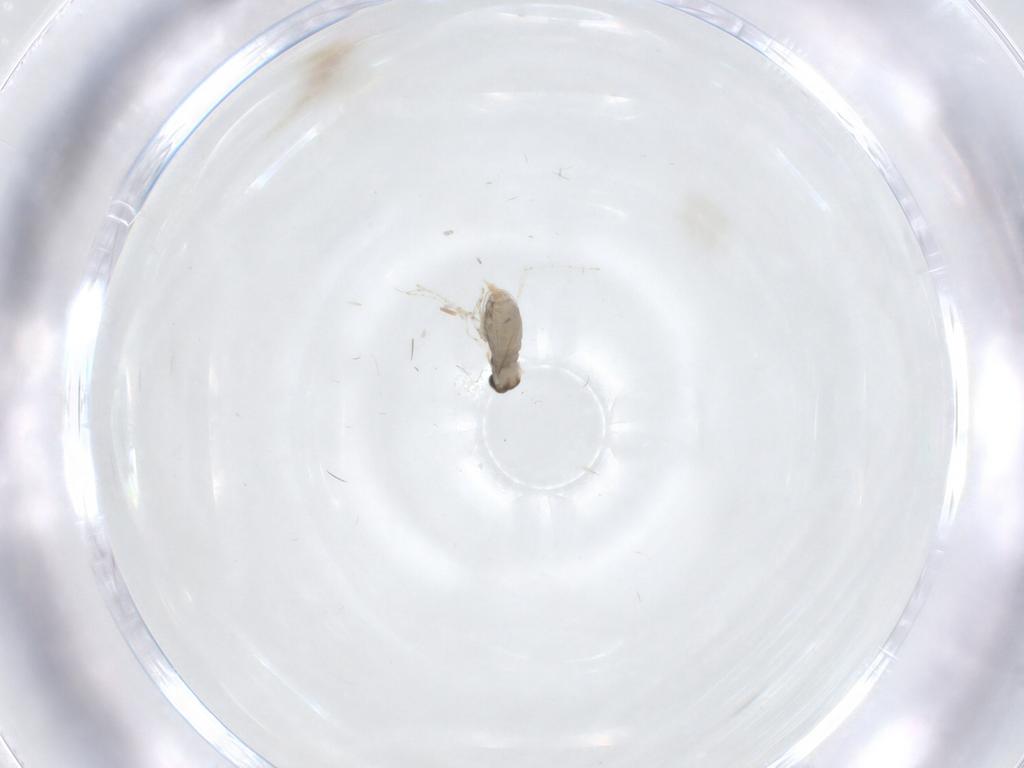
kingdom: Animalia
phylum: Arthropoda
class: Insecta
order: Diptera
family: Cecidomyiidae
